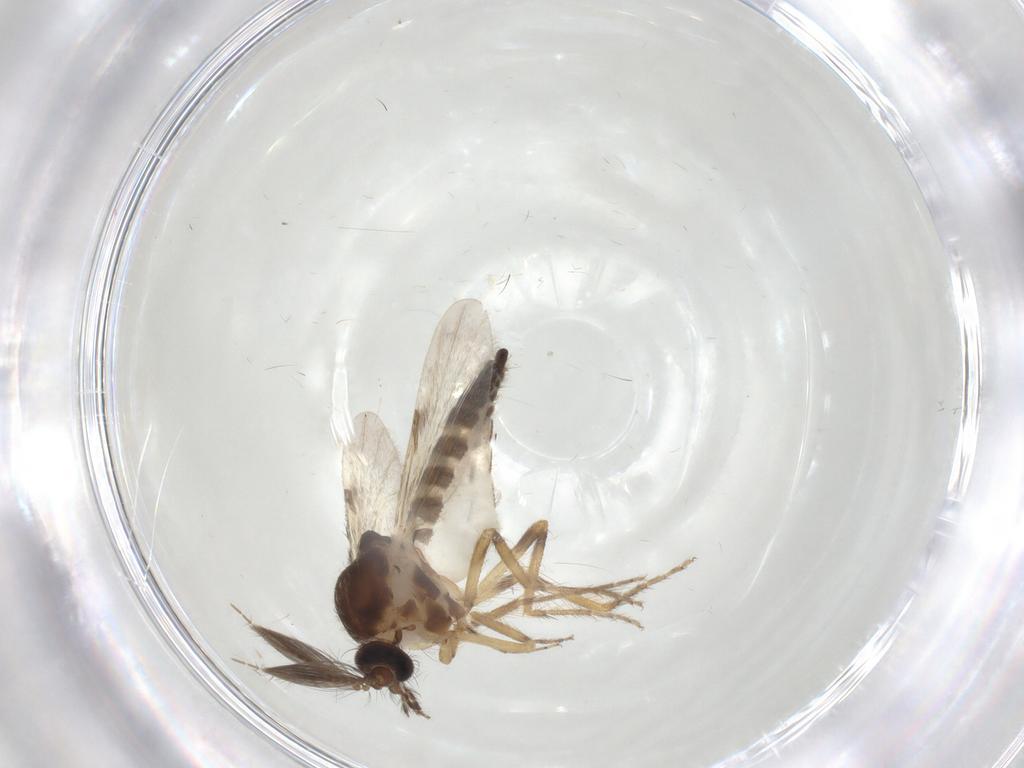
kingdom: Animalia
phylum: Arthropoda
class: Insecta
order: Diptera
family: Ceratopogonidae
